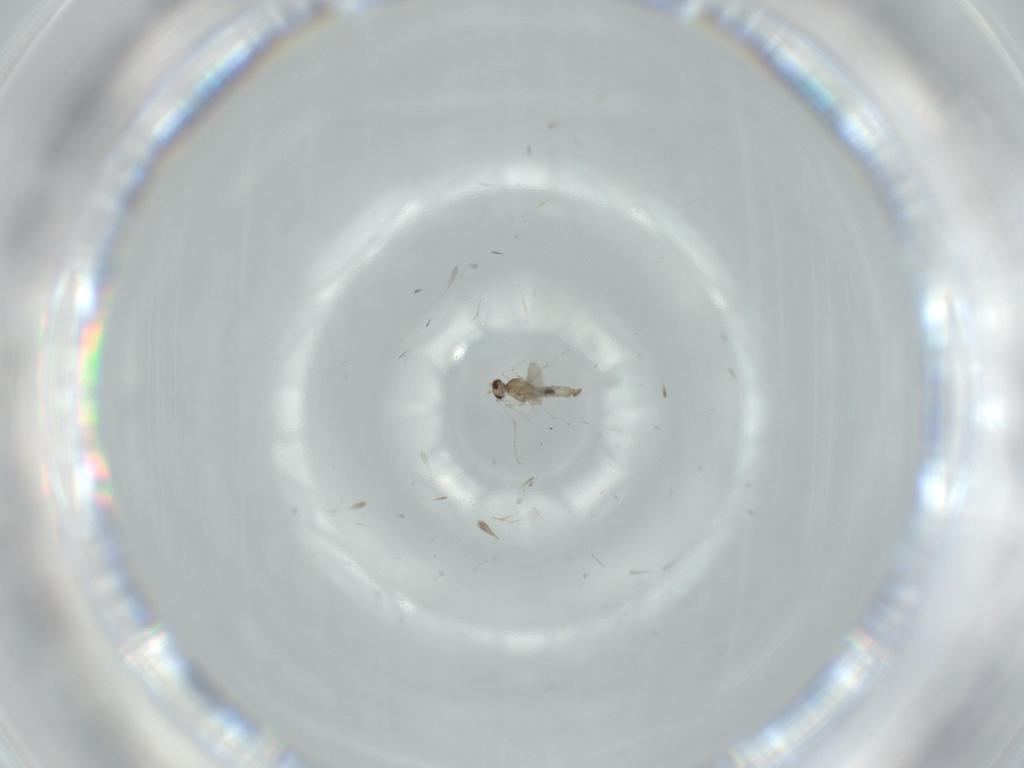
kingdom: Animalia
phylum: Arthropoda
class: Insecta
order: Diptera
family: Cecidomyiidae
